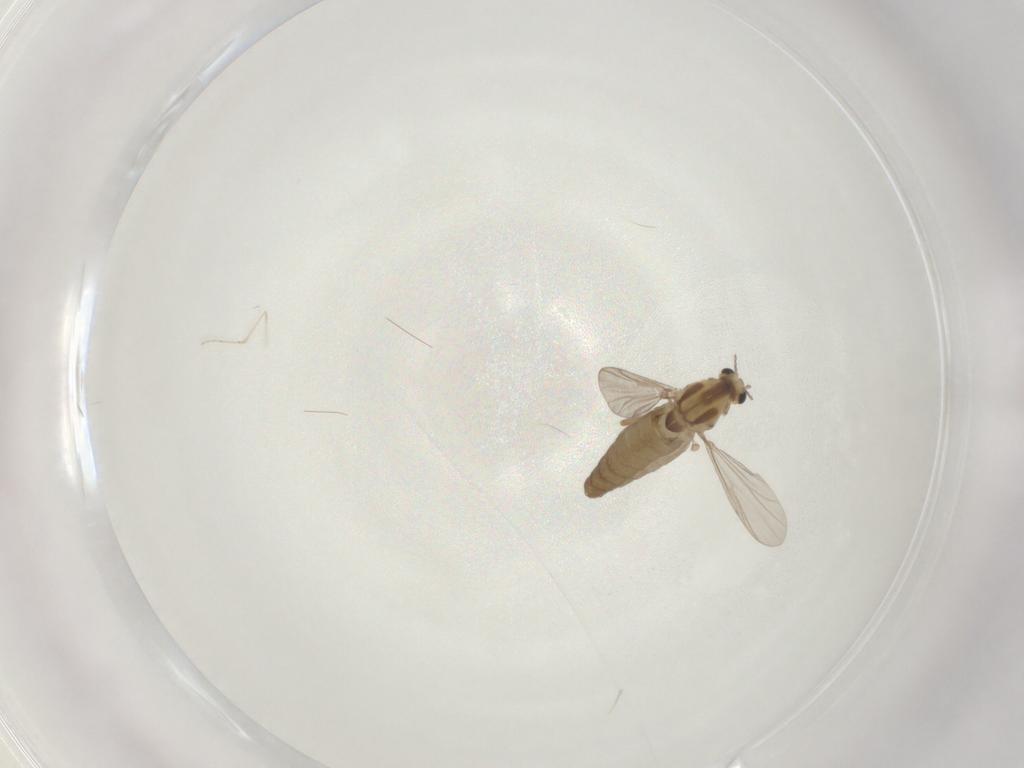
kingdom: Animalia
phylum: Arthropoda
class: Insecta
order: Diptera
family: Chironomidae
